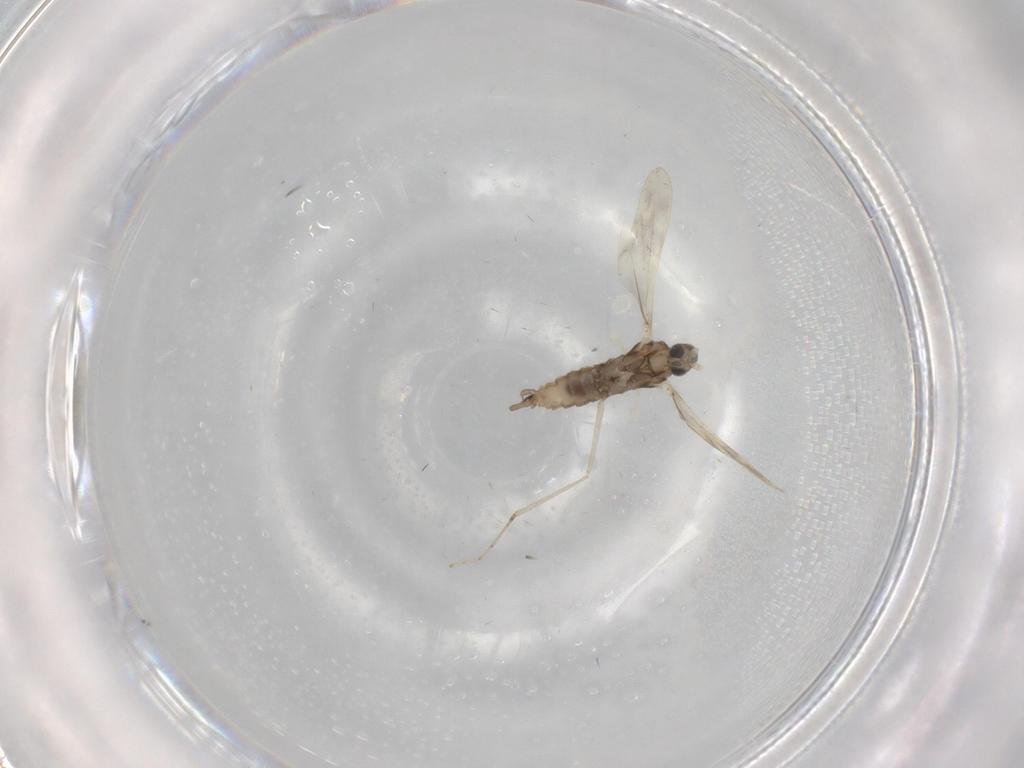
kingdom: Animalia
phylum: Arthropoda
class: Insecta
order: Diptera
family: Cecidomyiidae
